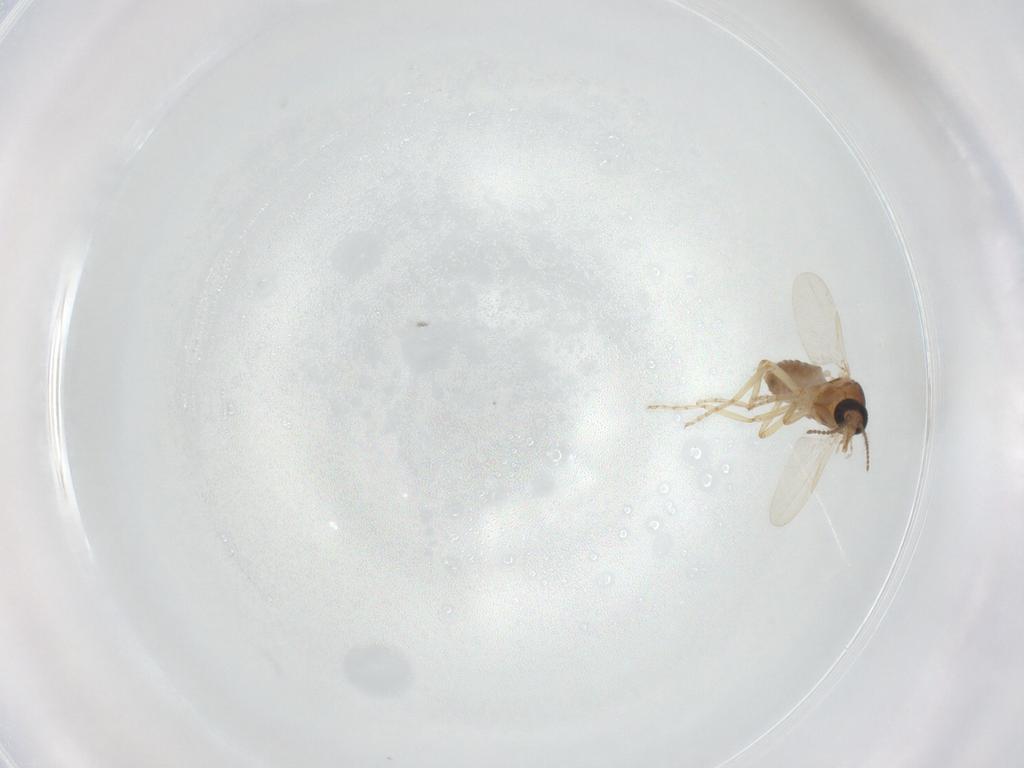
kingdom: Animalia
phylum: Arthropoda
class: Insecta
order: Diptera
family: Ceratopogonidae
